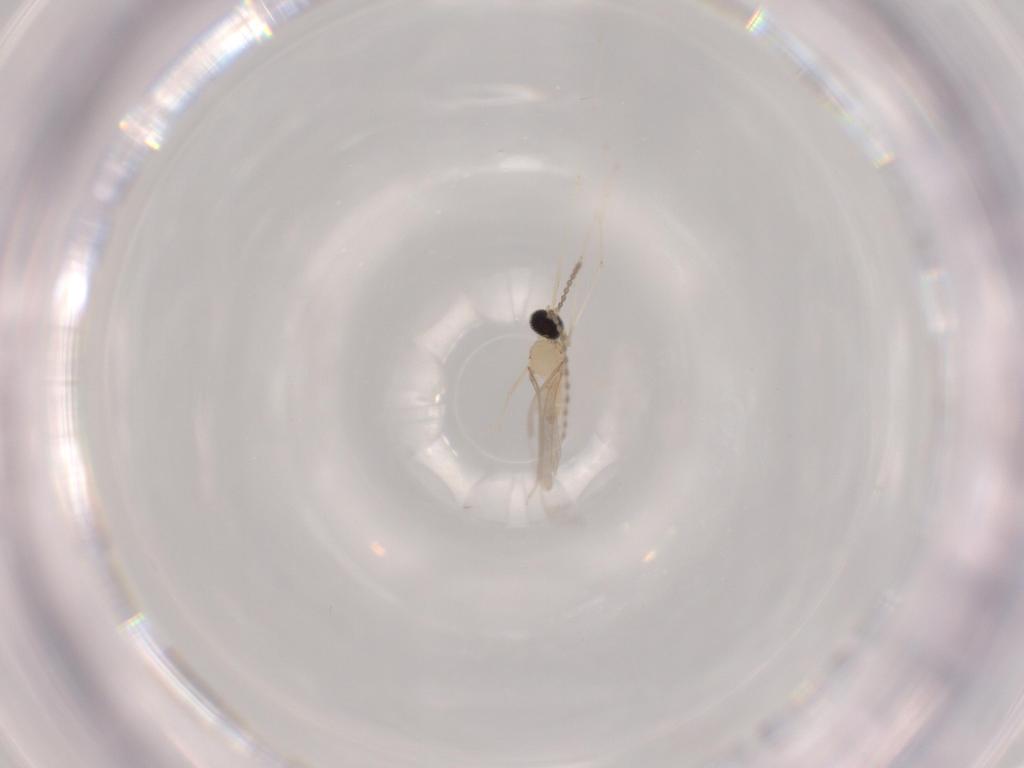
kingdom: Animalia
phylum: Arthropoda
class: Insecta
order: Diptera
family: Cecidomyiidae
